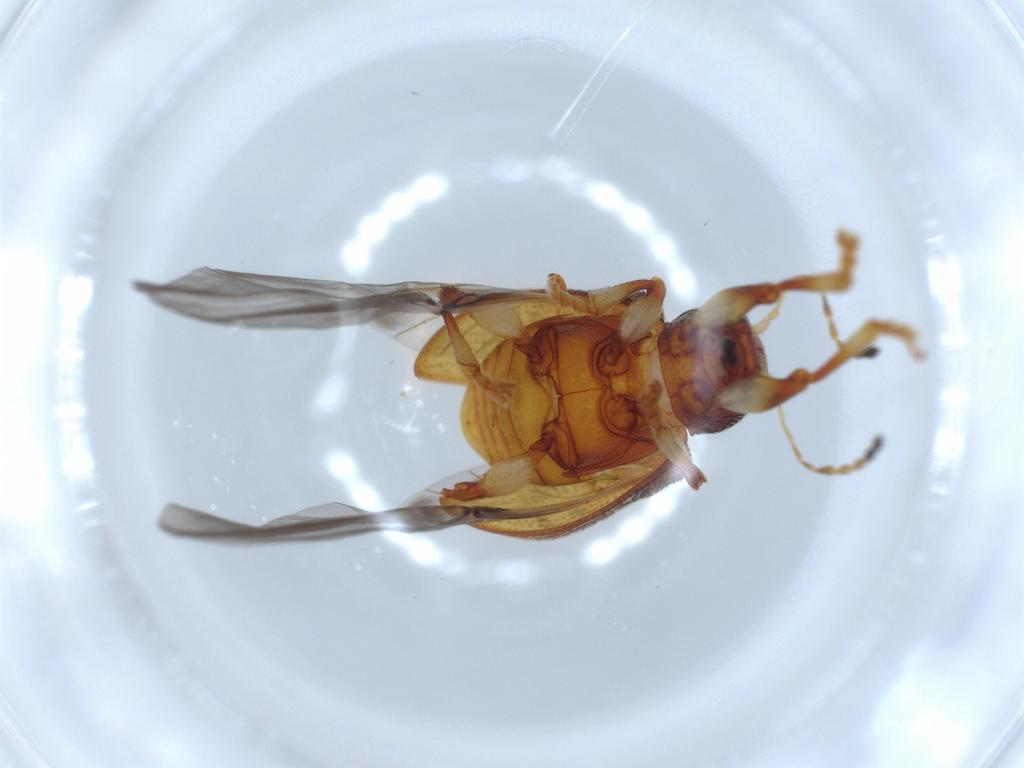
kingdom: Animalia
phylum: Arthropoda
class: Insecta
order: Coleoptera
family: Chrysomelidae
